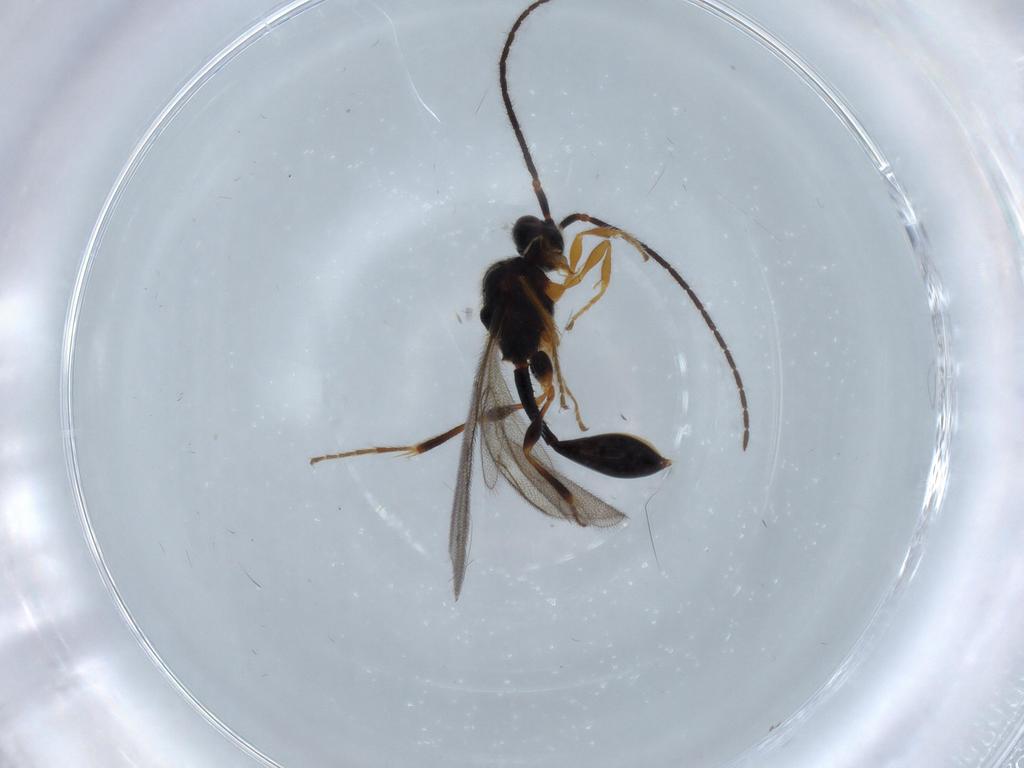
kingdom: Animalia
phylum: Arthropoda
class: Insecta
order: Hymenoptera
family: Diapriidae
